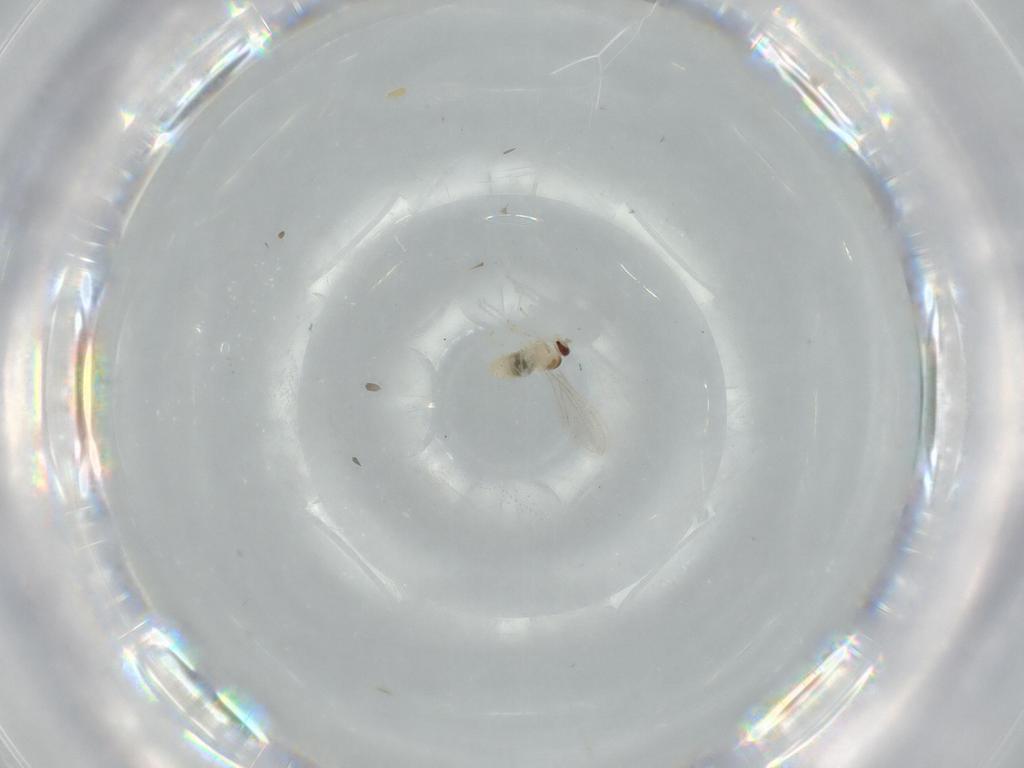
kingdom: Animalia
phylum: Arthropoda
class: Insecta
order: Diptera
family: Cecidomyiidae
